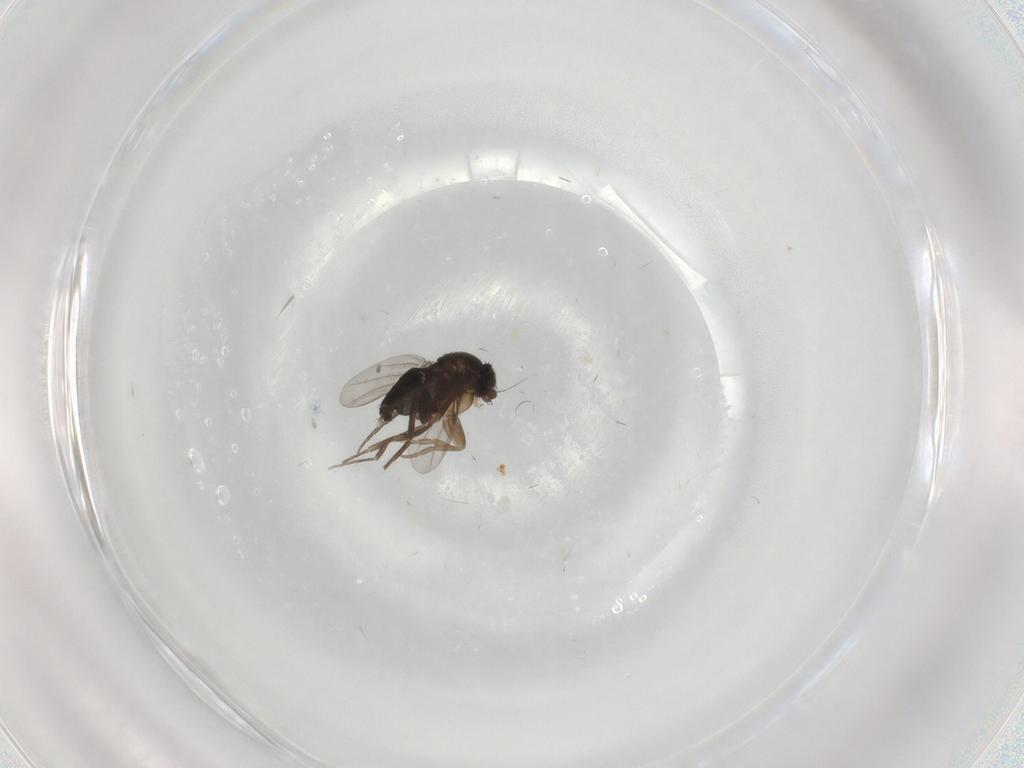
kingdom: Animalia
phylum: Arthropoda
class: Insecta
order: Diptera
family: Phoridae
